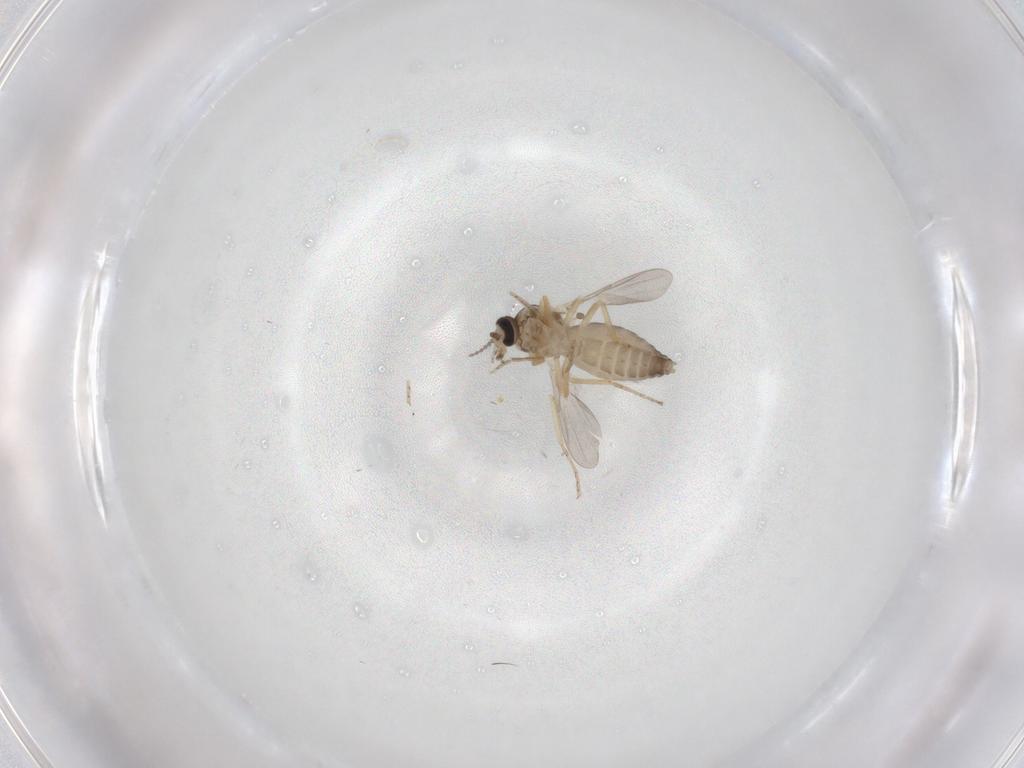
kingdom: Animalia
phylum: Arthropoda
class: Insecta
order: Diptera
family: Ceratopogonidae
